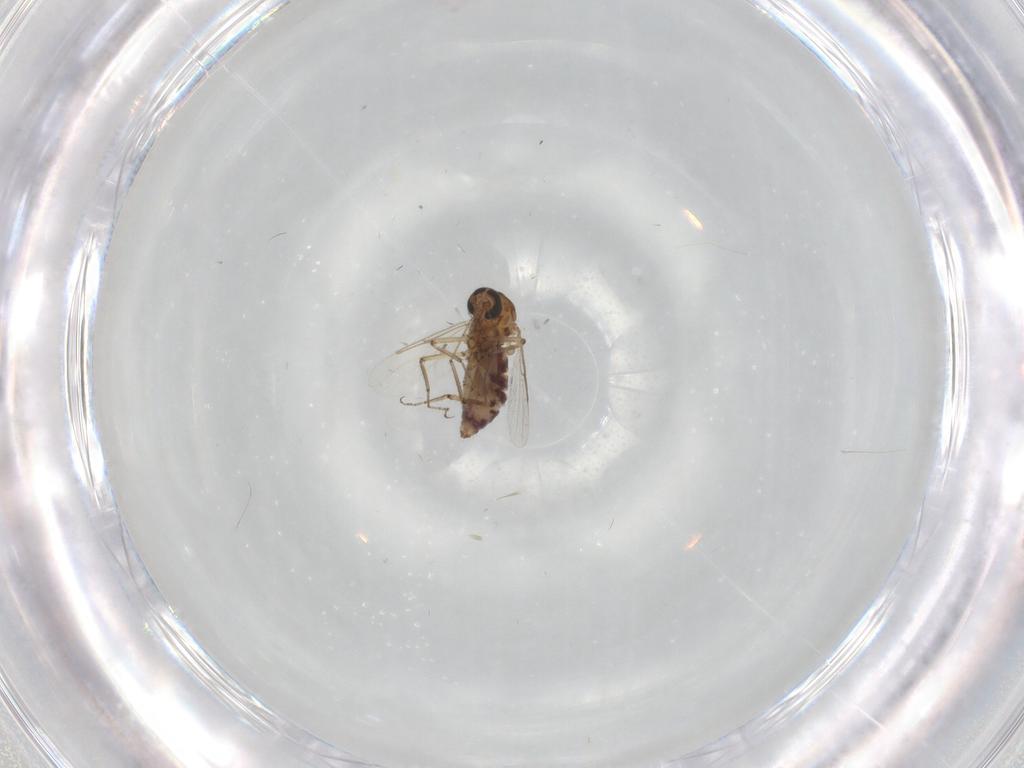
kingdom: Animalia
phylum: Arthropoda
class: Insecta
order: Diptera
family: Ceratopogonidae
